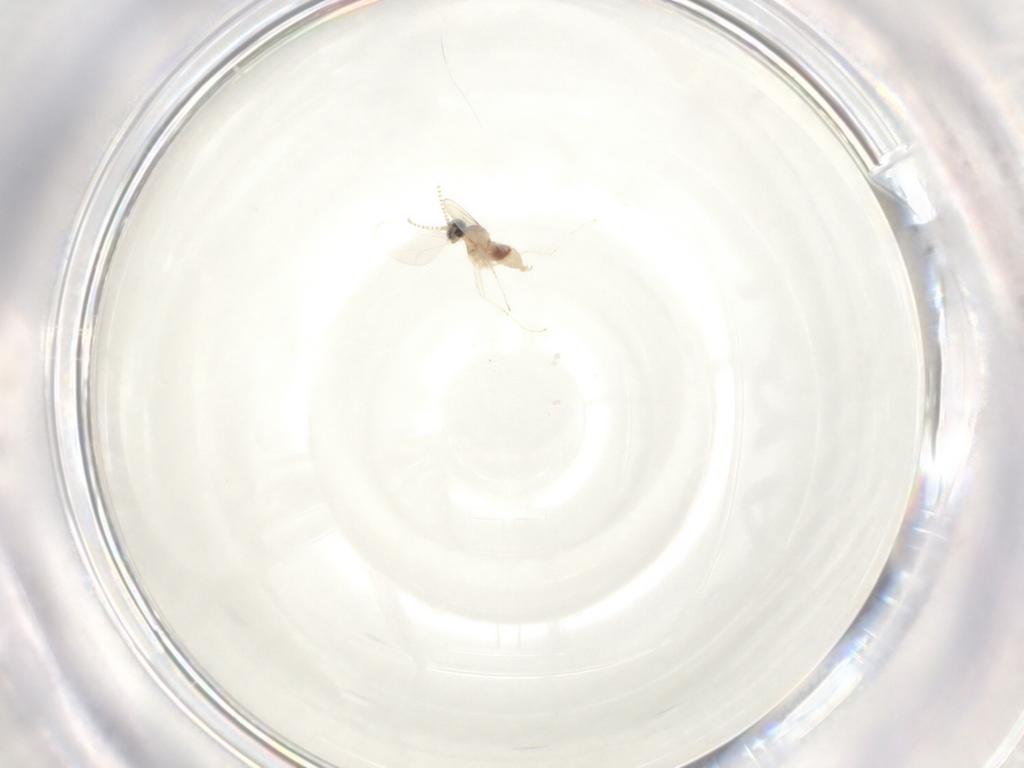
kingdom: Animalia
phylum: Arthropoda
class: Insecta
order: Diptera
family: Cecidomyiidae
